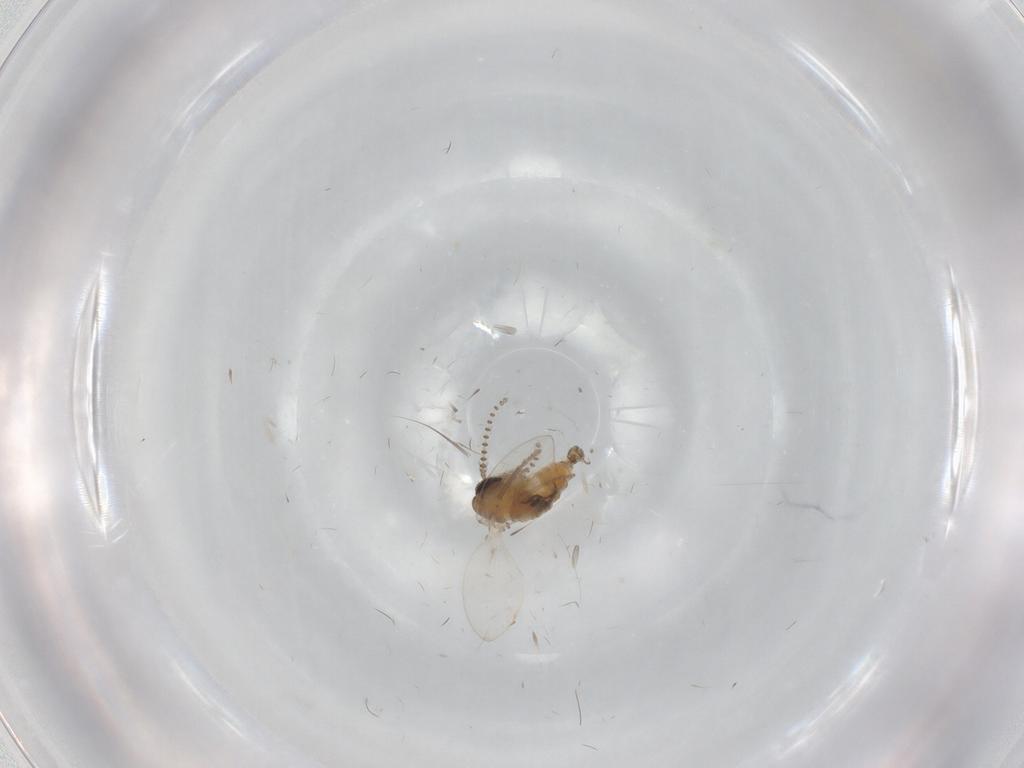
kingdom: Animalia
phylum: Arthropoda
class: Insecta
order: Diptera
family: Psychodidae
